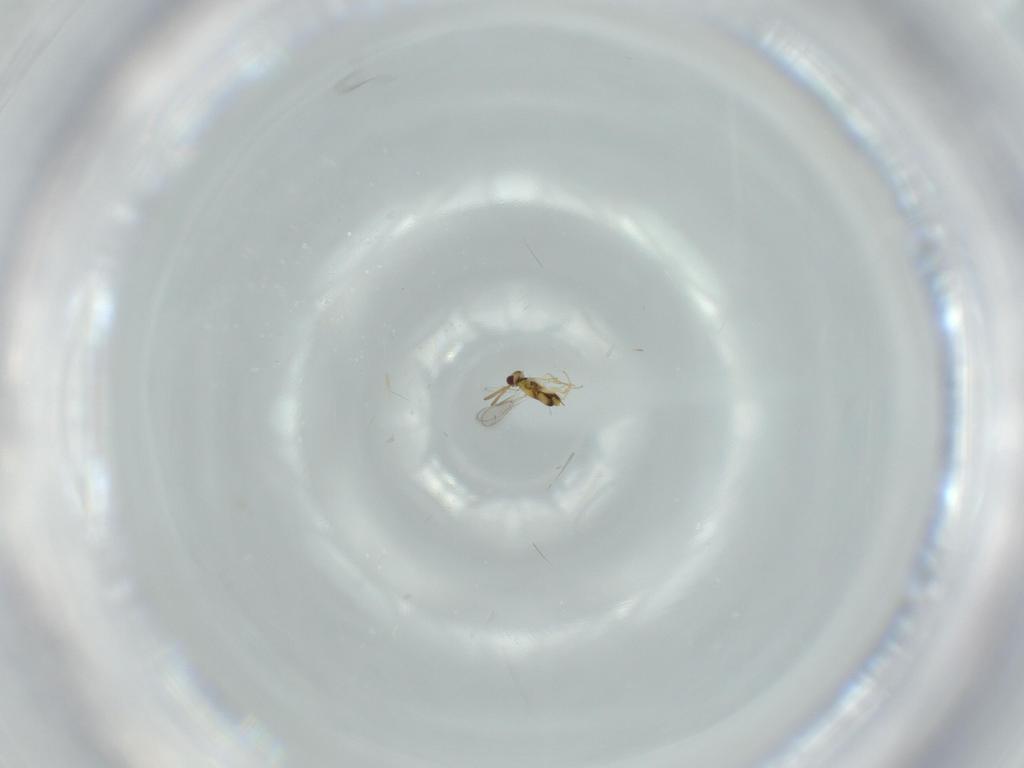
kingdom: Animalia
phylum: Arthropoda
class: Insecta
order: Hymenoptera
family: Aphelinidae
